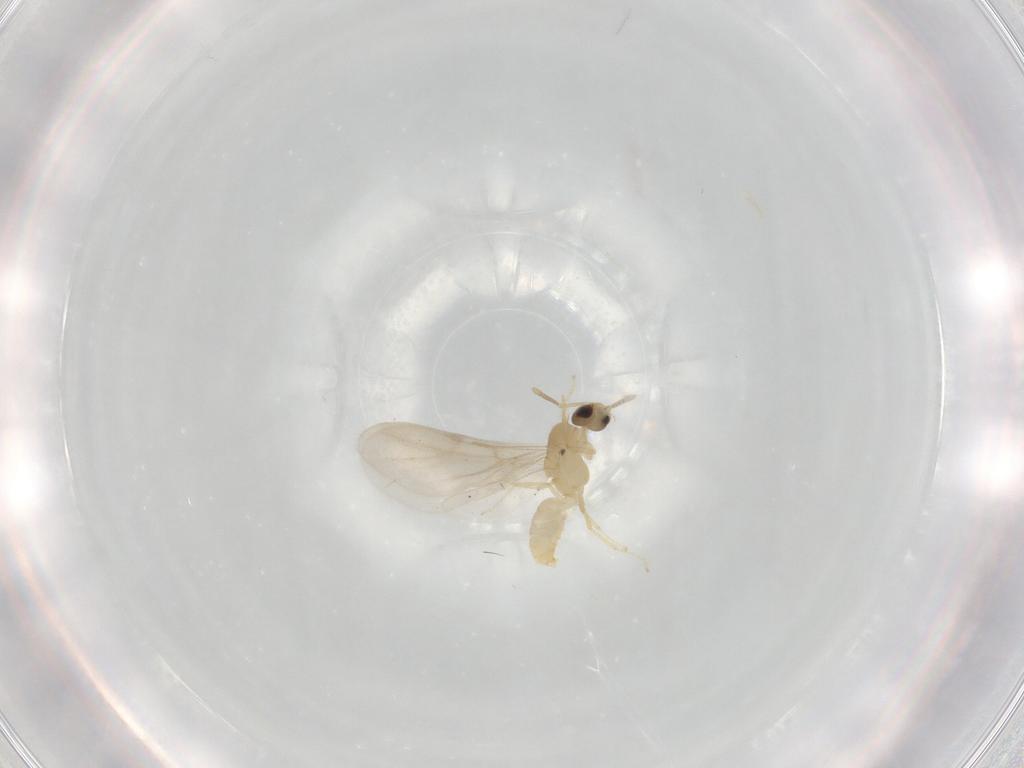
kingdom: Animalia
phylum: Arthropoda
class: Insecta
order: Hymenoptera
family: Formicidae
